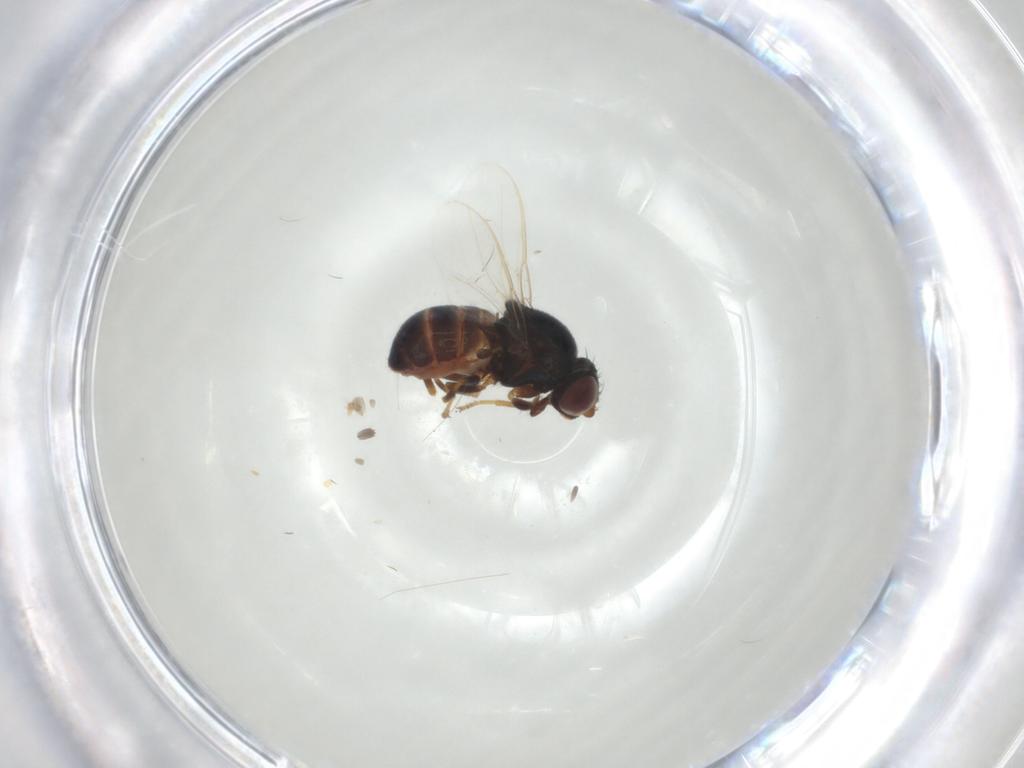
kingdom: Animalia
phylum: Arthropoda
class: Insecta
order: Diptera
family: Chloropidae
